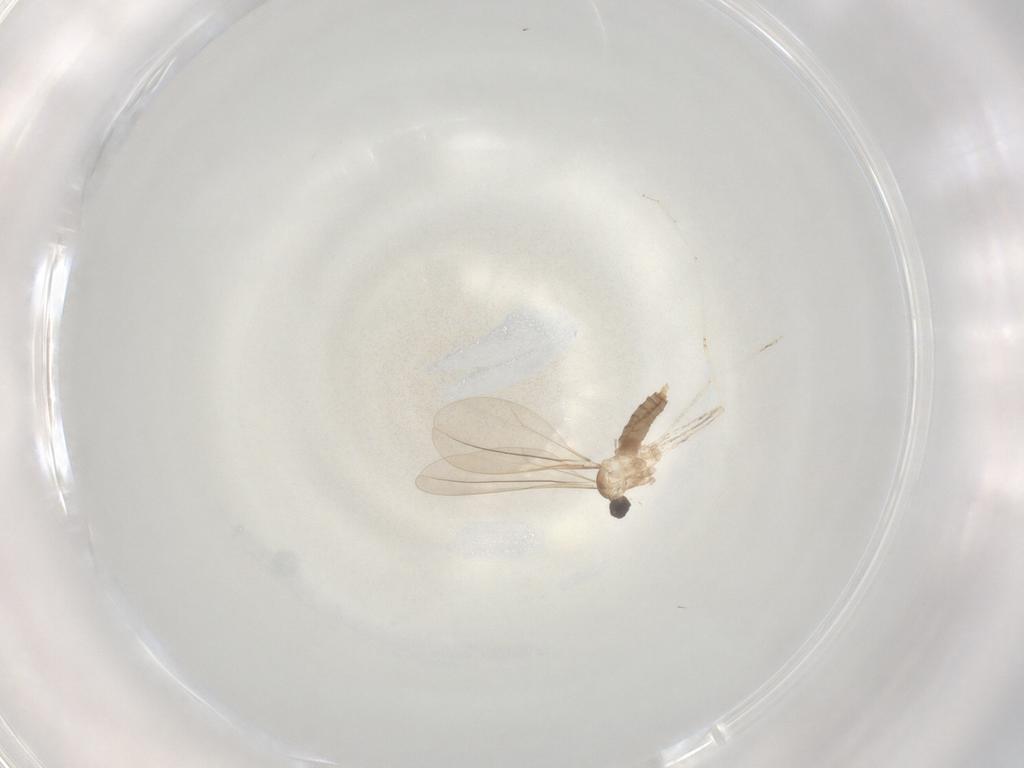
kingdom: Animalia
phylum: Arthropoda
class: Insecta
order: Diptera
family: Cecidomyiidae
